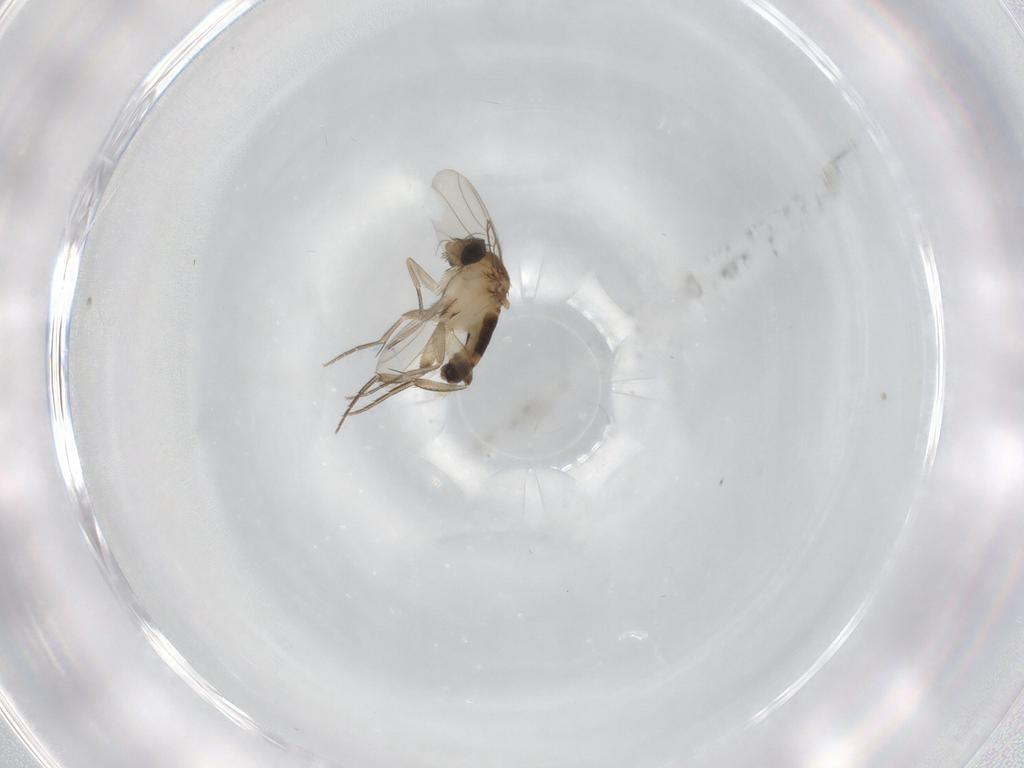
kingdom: Animalia
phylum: Arthropoda
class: Insecta
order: Diptera
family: Phoridae
